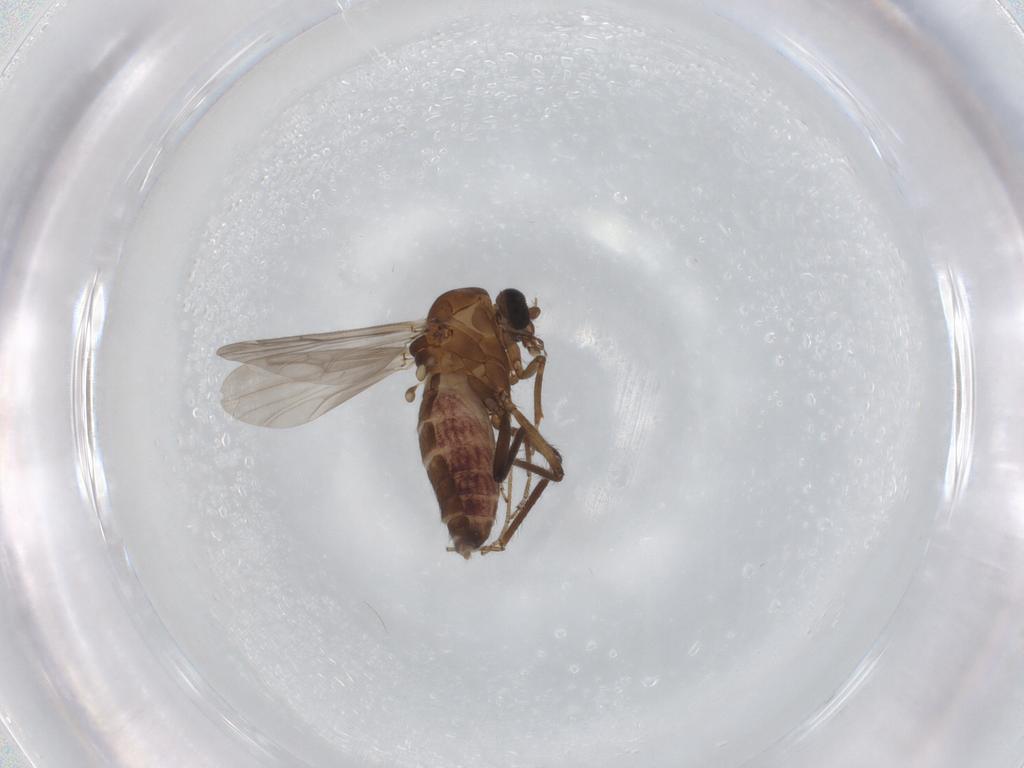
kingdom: Animalia
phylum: Arthropoda
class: Insecta
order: Diptera
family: Ceratopogonidae
